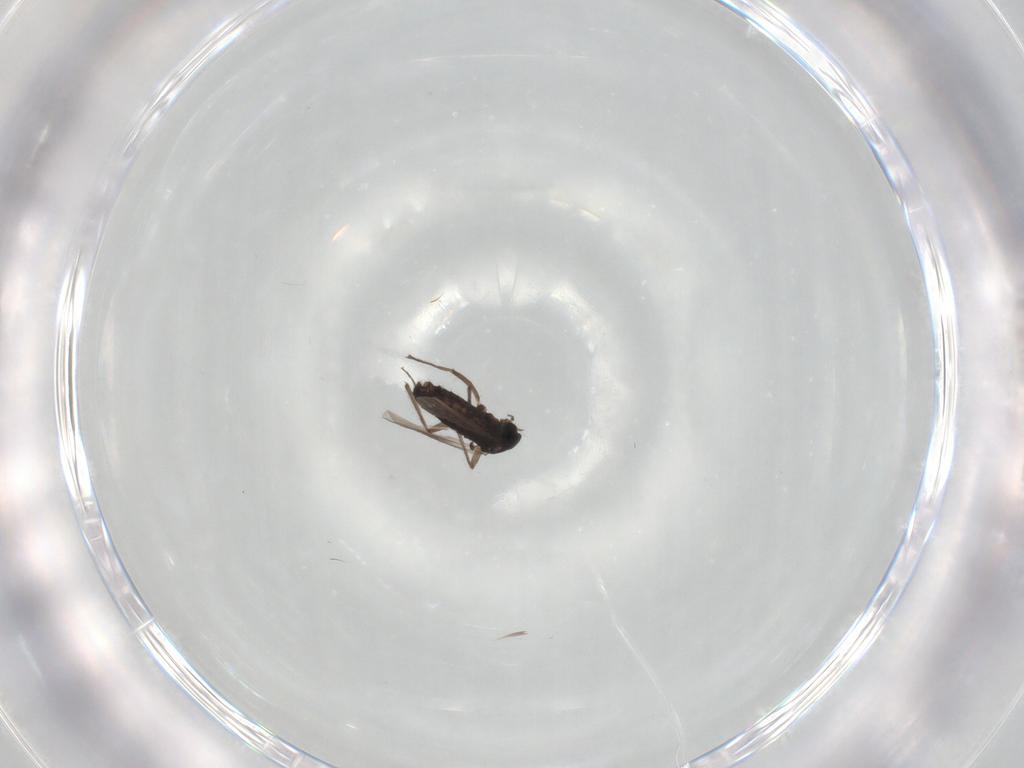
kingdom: Animalia
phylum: Arthropoda
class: Insecta
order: Diptera
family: Chironomidae
